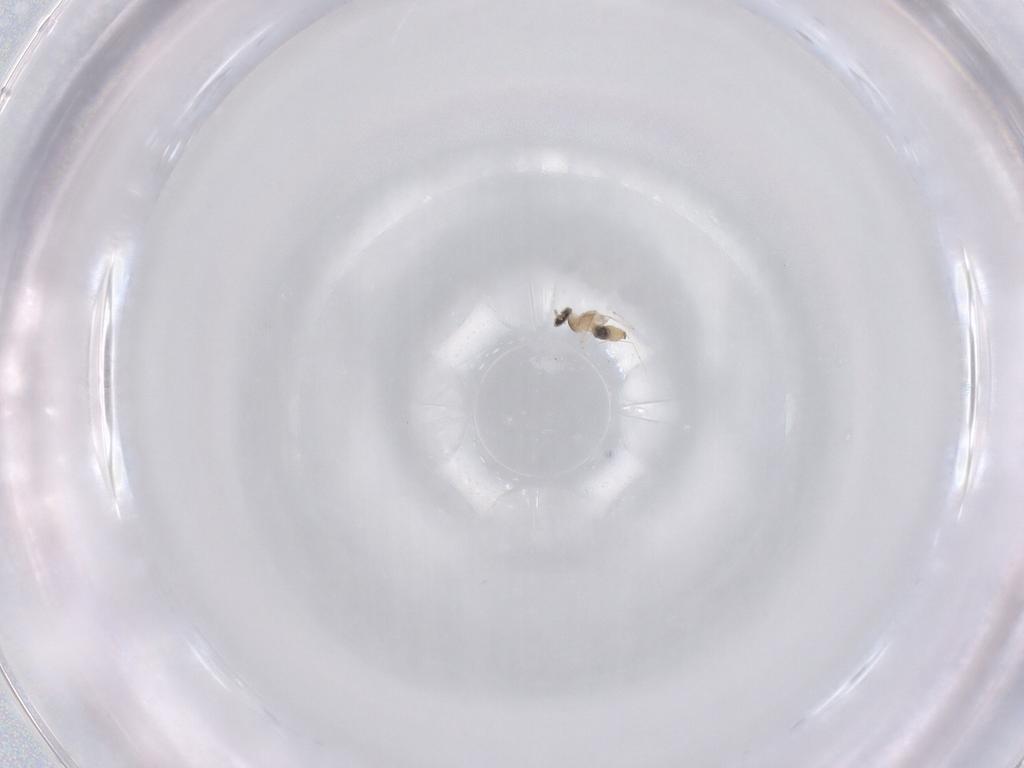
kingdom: Animalia
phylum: Arthropoda
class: Insecta
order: Diptera
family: Cecidomyiidae
